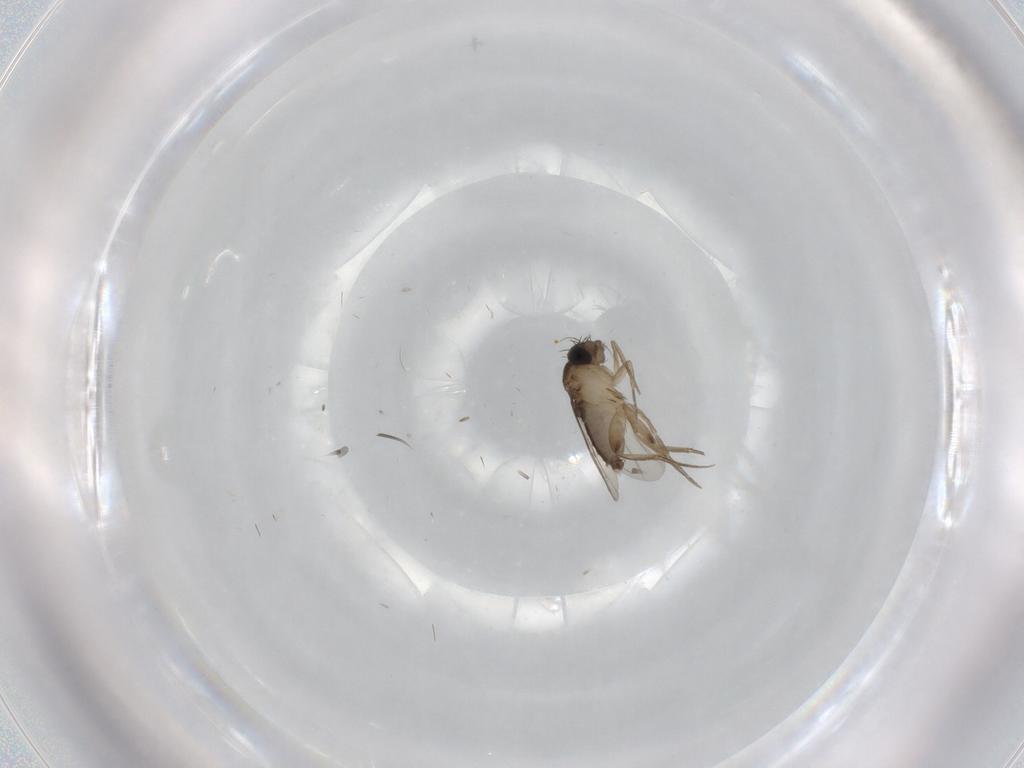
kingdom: Animalia
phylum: Arthropoda
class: Insecta
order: Diptera
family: Phoridae
